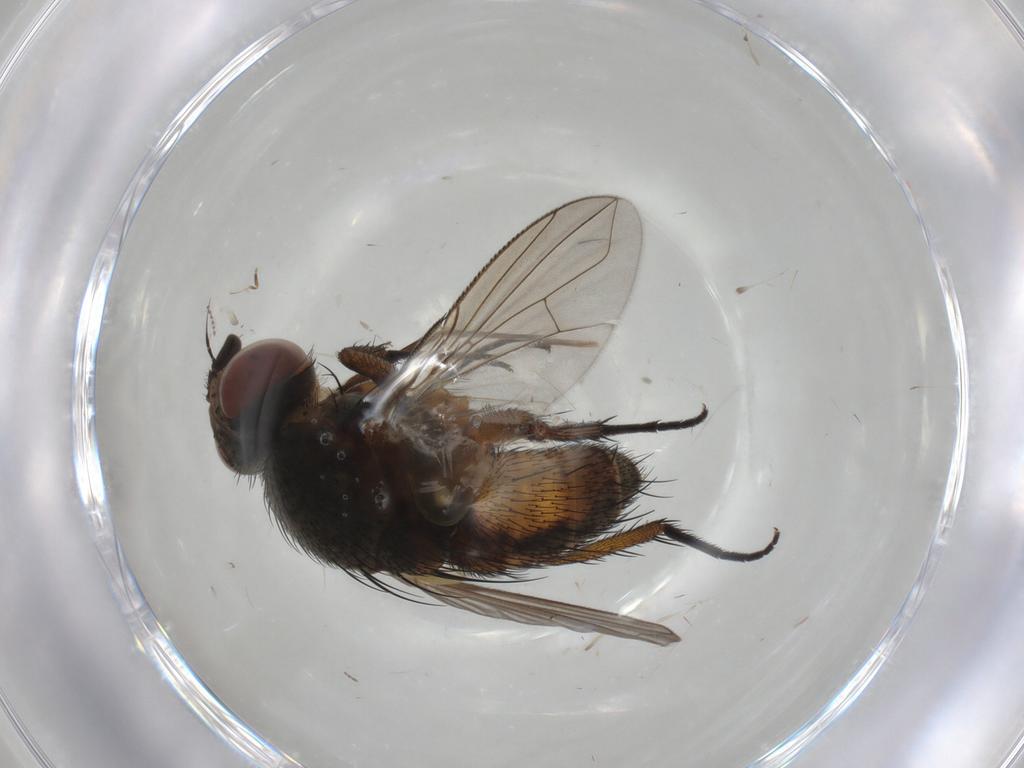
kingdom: Animalia
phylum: Arthropoda
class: Insecta
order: Diptera
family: Tachinidae
